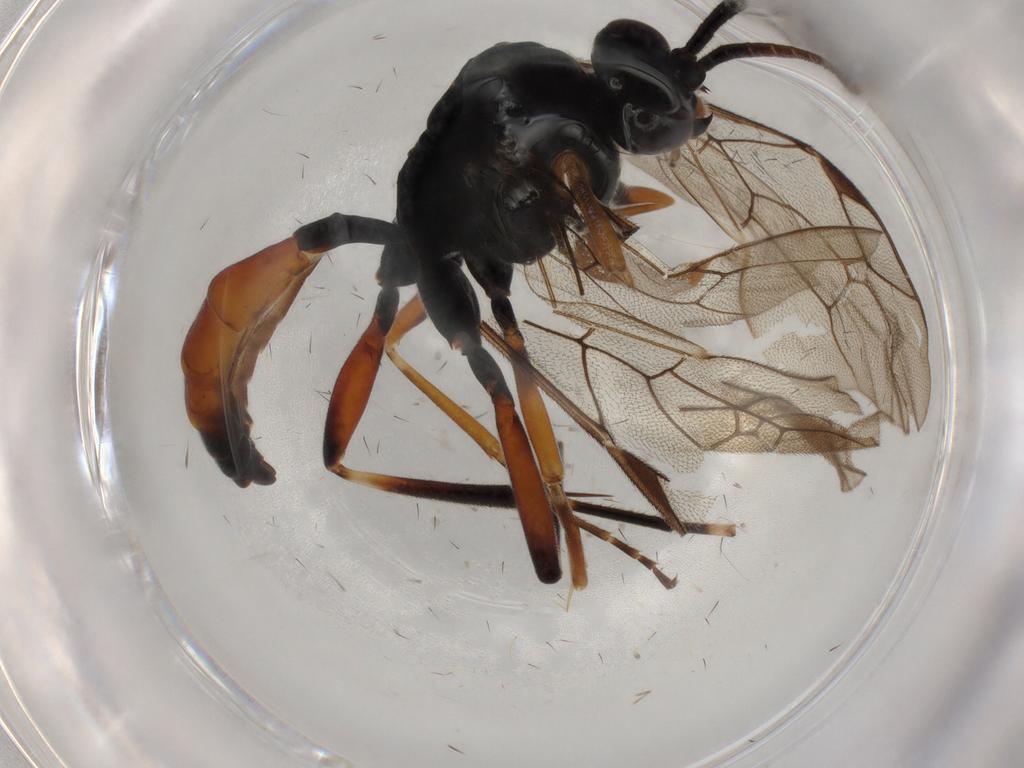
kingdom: Animalia
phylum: Arthropoda
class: Insecta
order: Hymenoptera
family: Ichneumonidae
